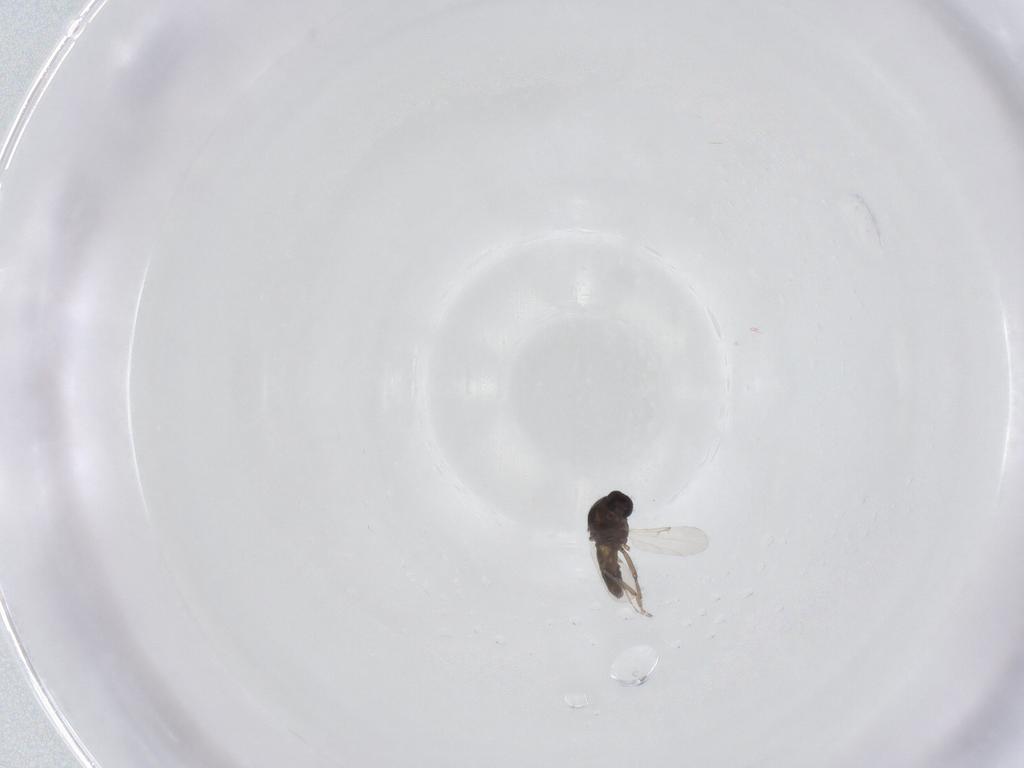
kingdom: Animalia
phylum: Arthropoda
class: Insecta
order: Diptera
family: Ceratopogonidae
